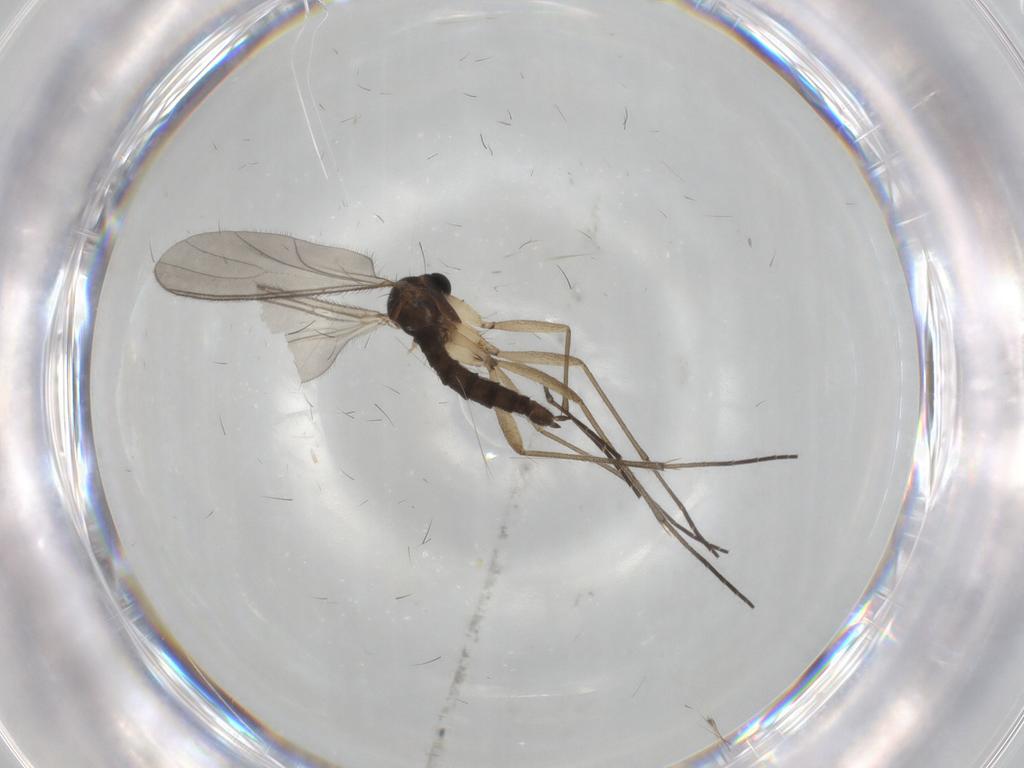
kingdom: Animalia
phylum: Arthropoda
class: Insecta
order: Diptera
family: Sciaridae
